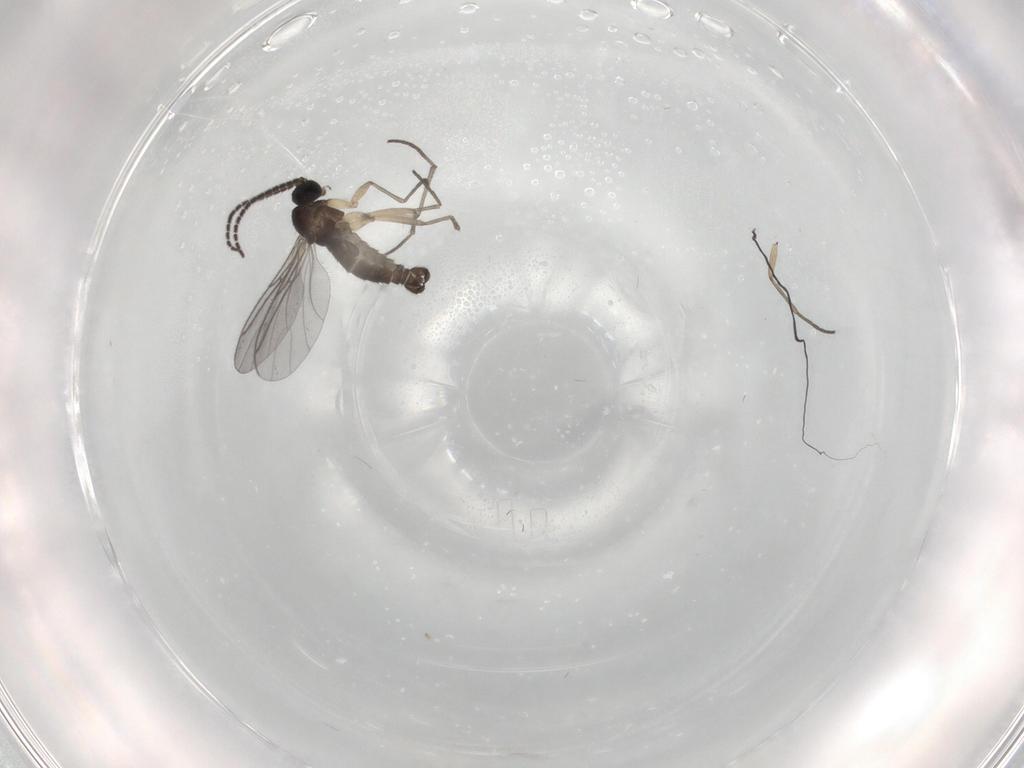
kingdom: Animalia
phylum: Arthropoda
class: Insecta
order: Diptera
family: Sciaridae
